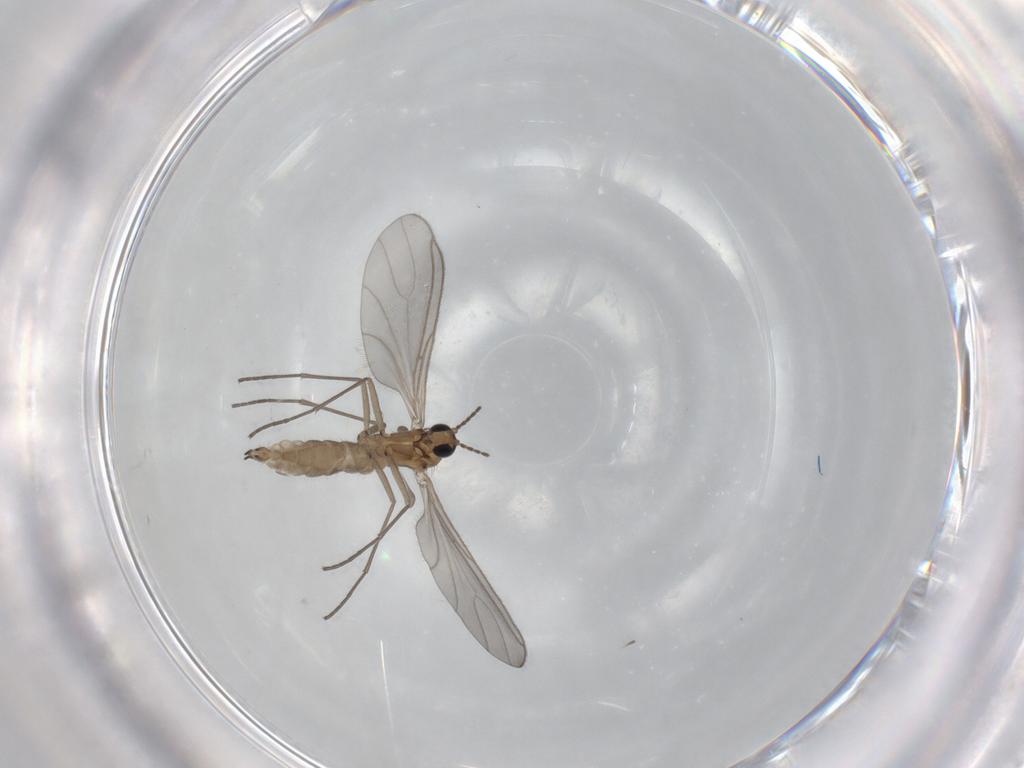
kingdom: Animalia
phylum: Arthropoda
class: Insecta
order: Diptera
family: Sciaridae
